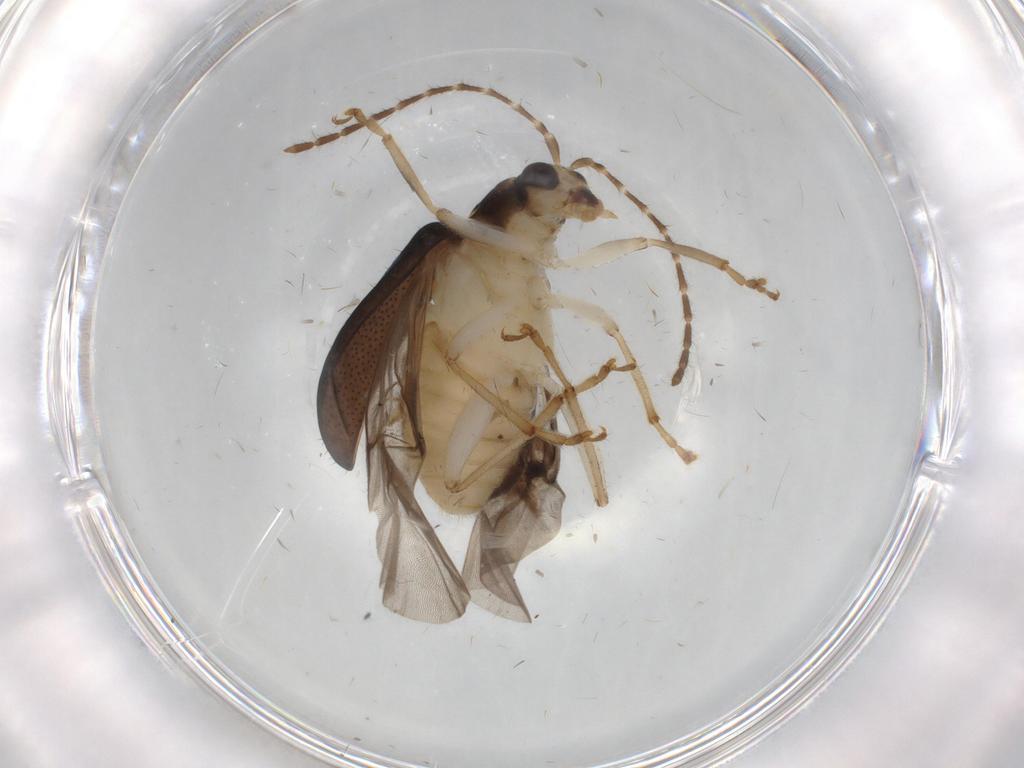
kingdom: Animalia
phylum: Arthropoda
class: Insecta
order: Coleoptera
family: Chrysomelidae
